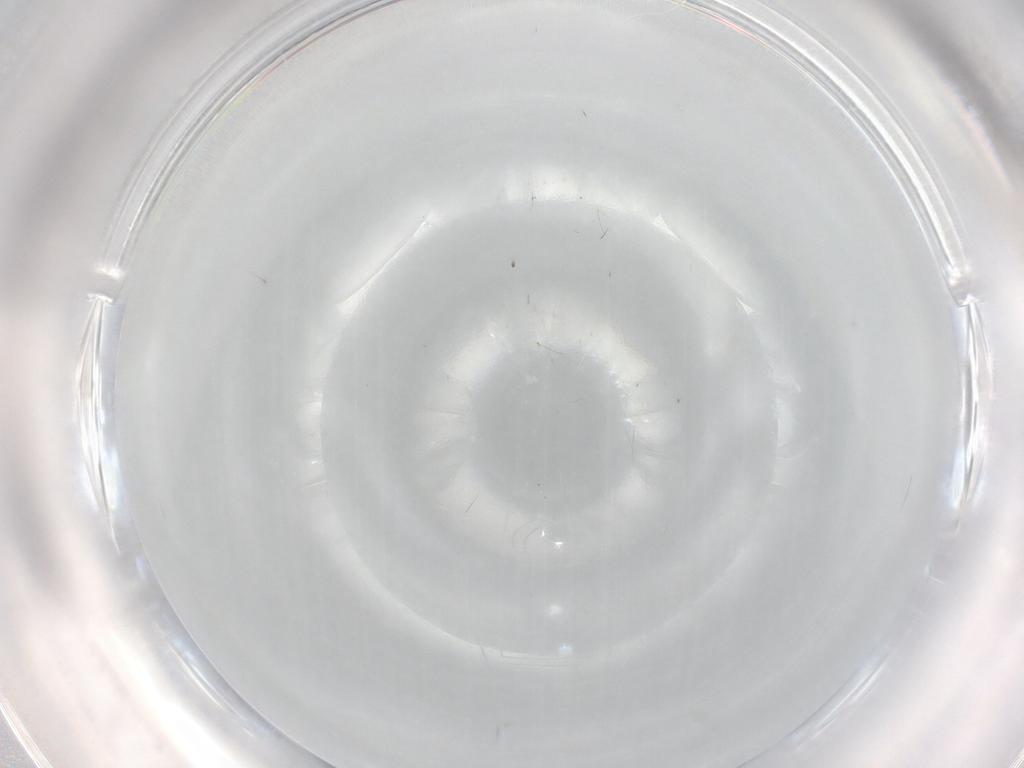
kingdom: Animalia
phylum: Arthropoda
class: Insecta
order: Hemiptera
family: Aleyrodidae
